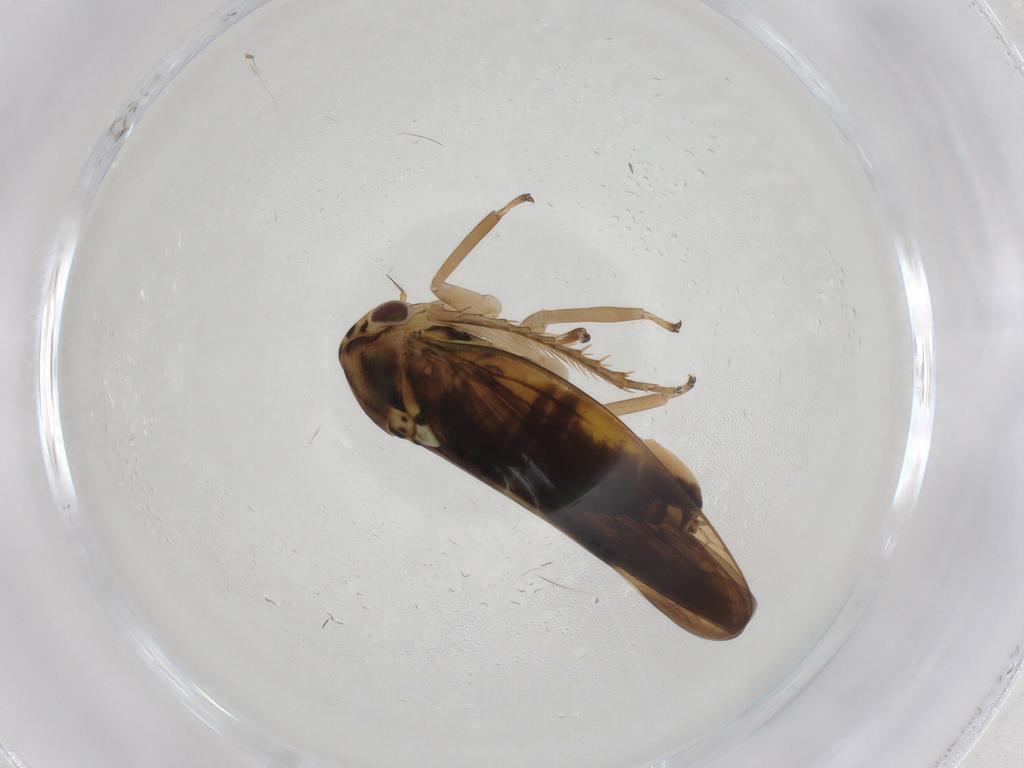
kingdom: Animalia
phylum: Arthropoda
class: Insecta
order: Hemiptera
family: Cicadellidae
